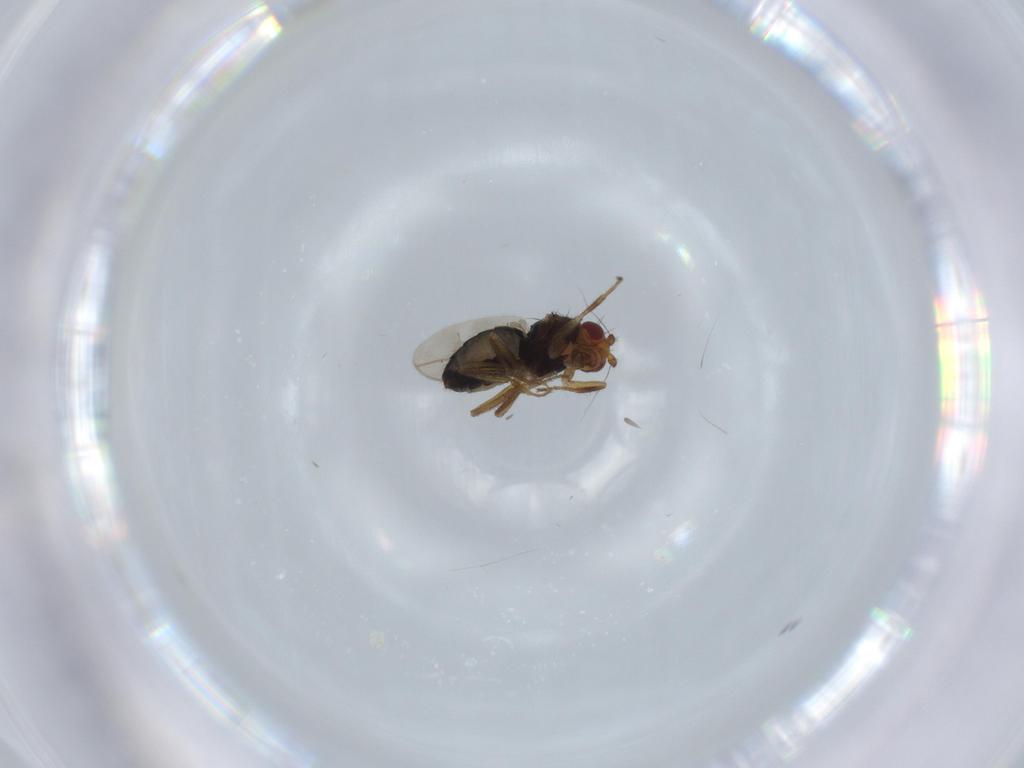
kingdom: Animalia
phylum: Arthropoda
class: Insecta
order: Diptera
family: Sphaeroceridae
